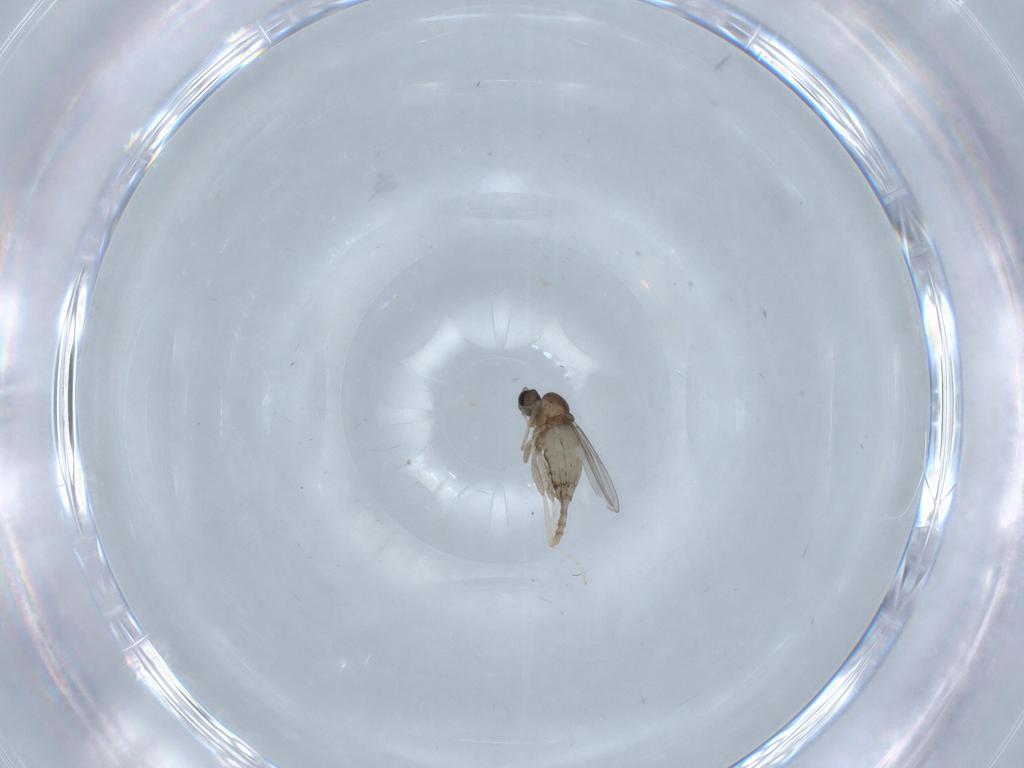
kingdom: Animalia
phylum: Arthropoda
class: Insecta
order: Diptera
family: Cecidomyiidae
